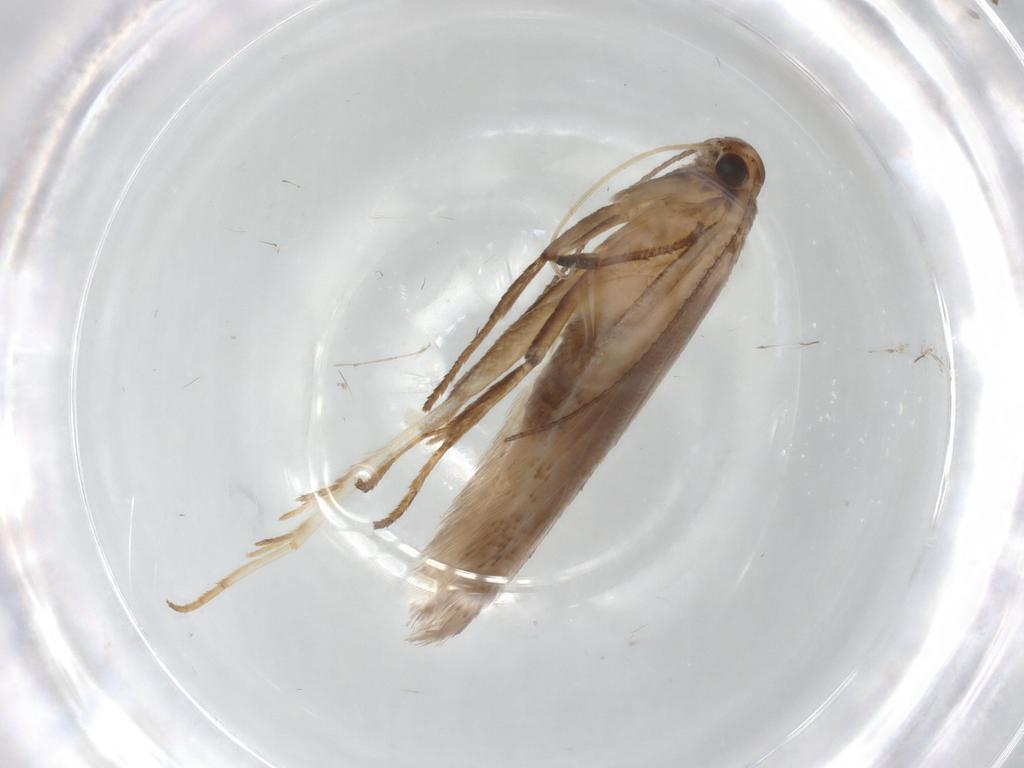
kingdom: Animalia
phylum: Arthropoda
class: Insecta
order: Lepidoptera
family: Gelechiidae
